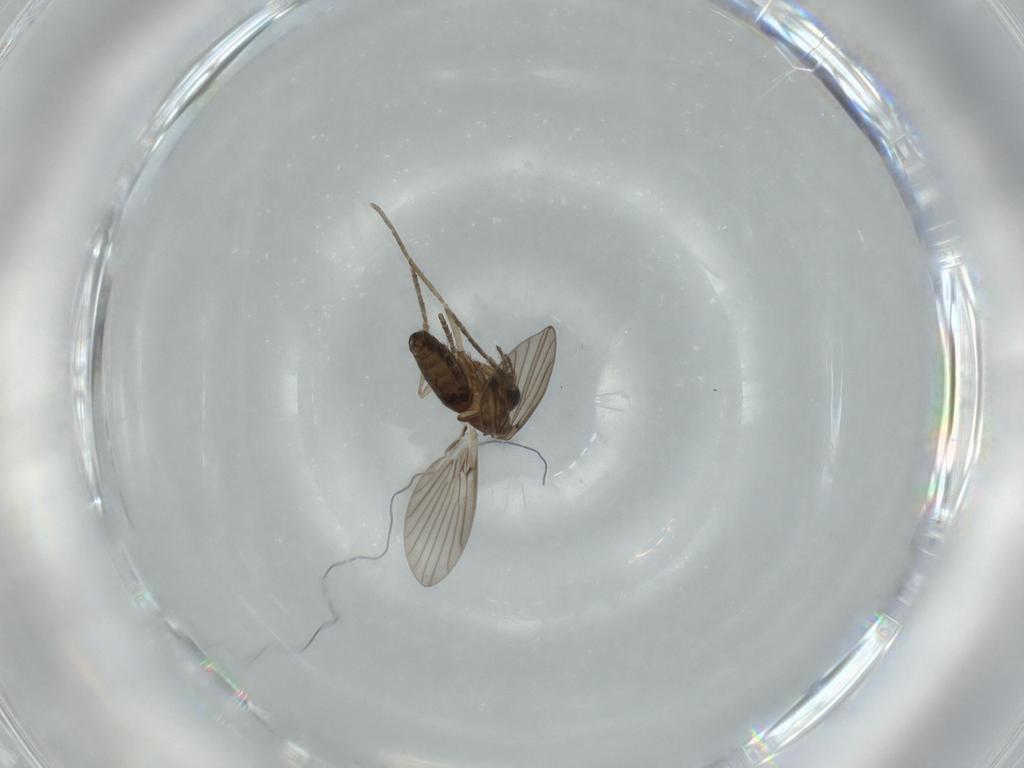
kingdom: Animalia
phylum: Arthropoda
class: Insecta
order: Diptera
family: Psychodidae
